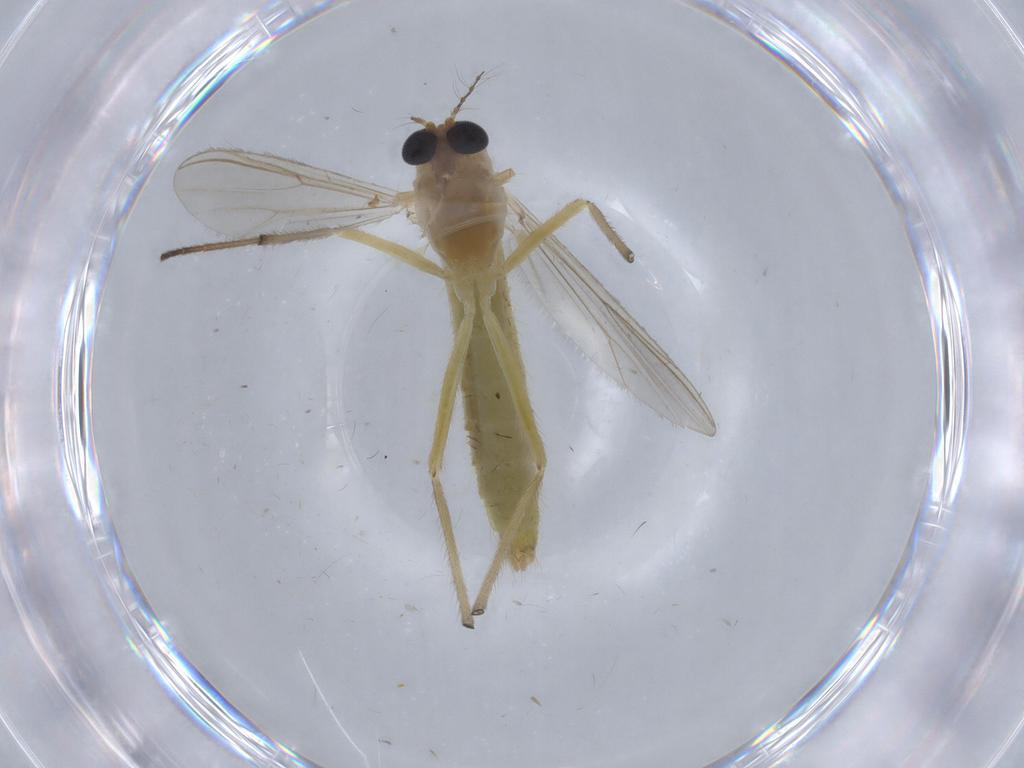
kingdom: Animalia
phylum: Arthropoda
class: Insecta
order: Diptera
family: Chironomidae
